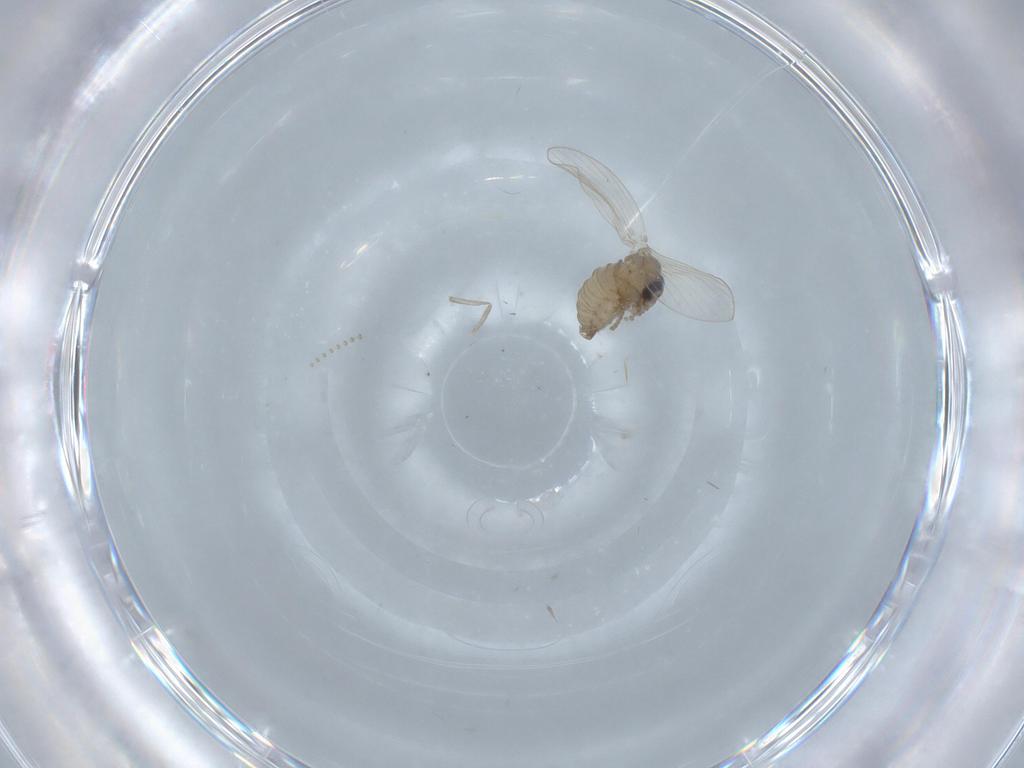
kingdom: Animalia
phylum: Arthropoda
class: Insecta
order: Diptera
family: Psychodidae
